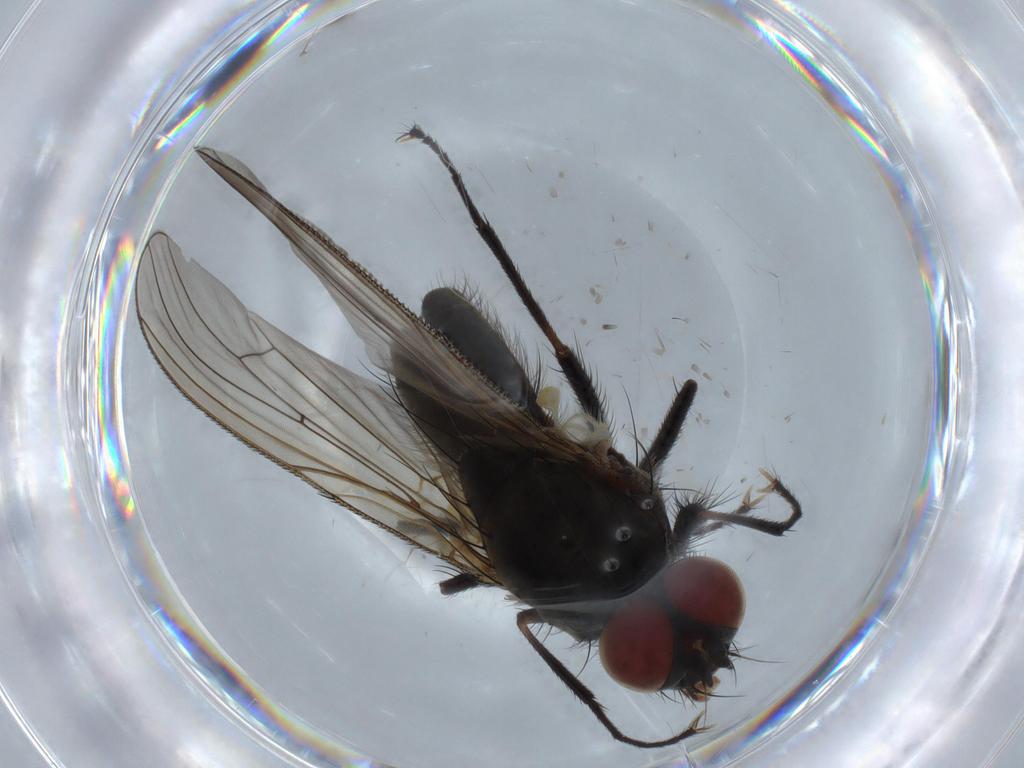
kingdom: Animalia
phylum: Arthropoda
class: Insecta
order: Diptera
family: Anthomyiidae
